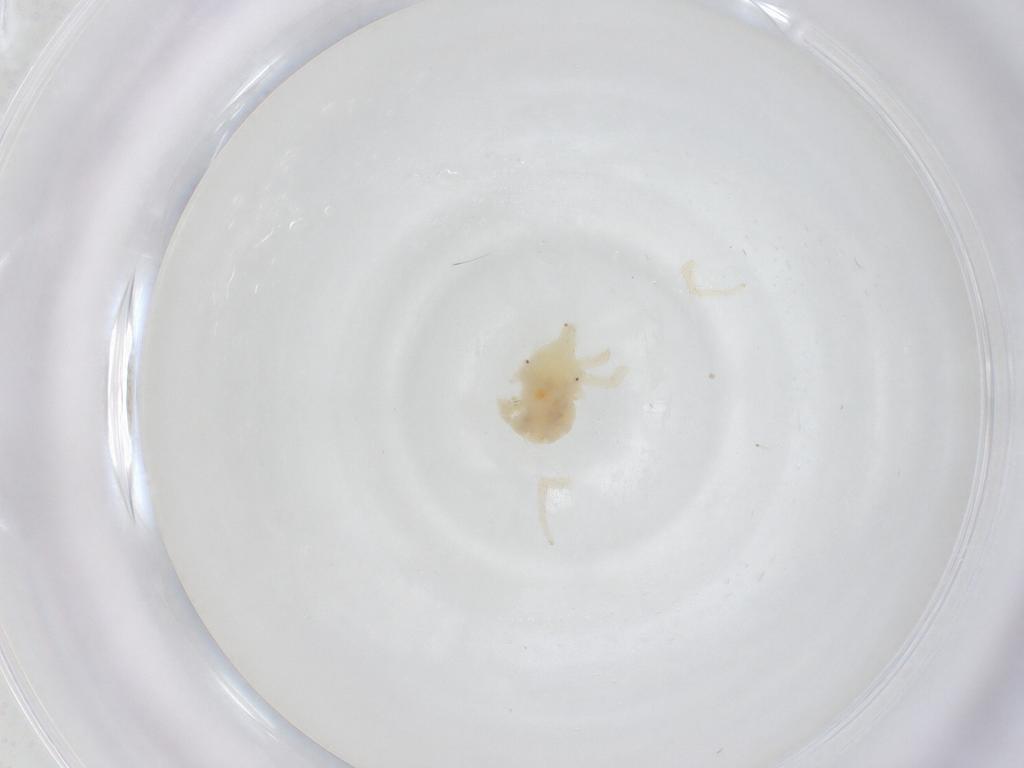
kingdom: Animalia
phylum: Arthropoda
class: Arachnida
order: Trombidiformes
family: Anystidae
